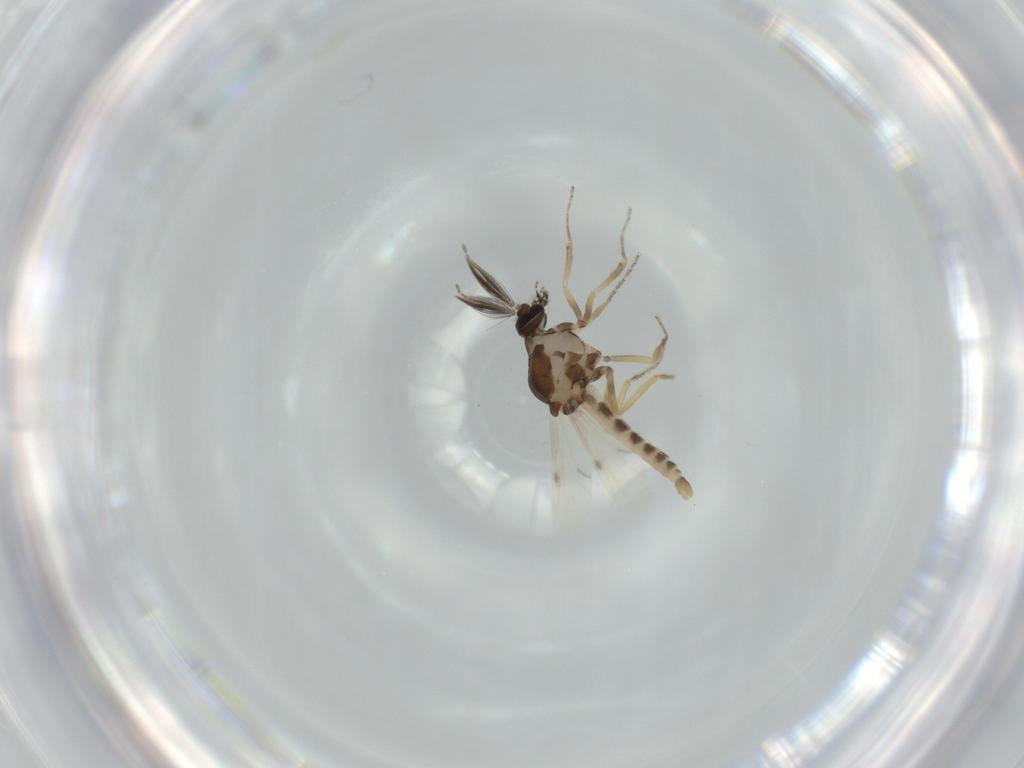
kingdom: Animalia
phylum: Arthropoda
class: Insecta
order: Diptera
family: Ceratopogonidae
